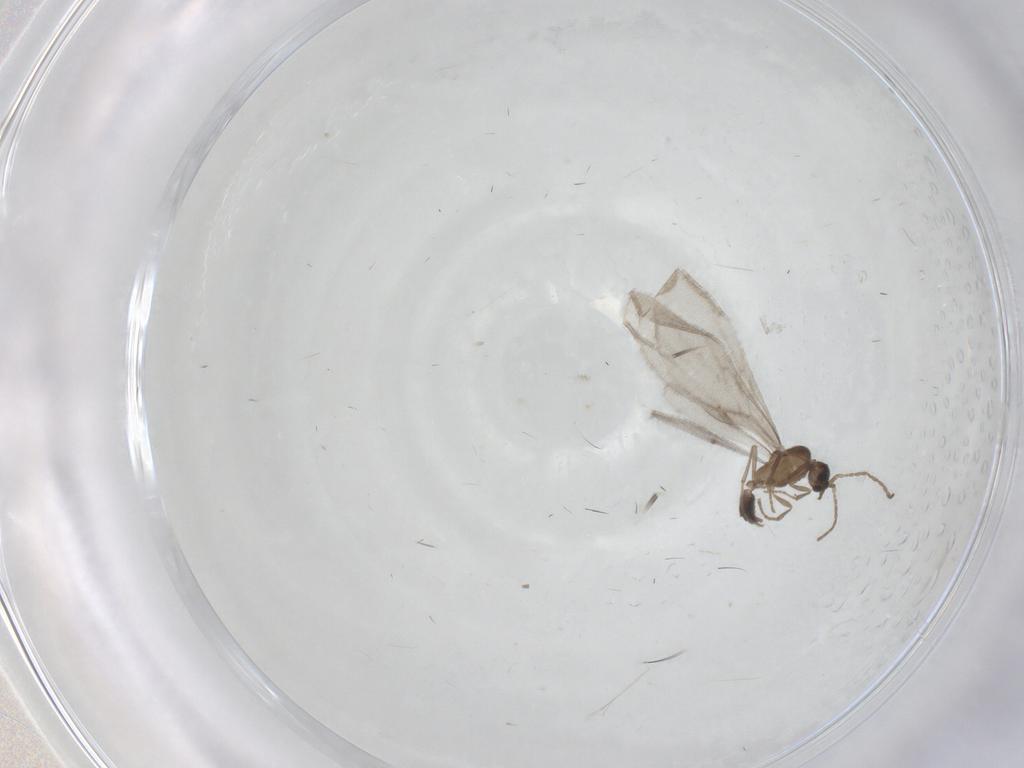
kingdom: Animalia
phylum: Arthropoda
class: Insecta
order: Hymenoptera
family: Formicidae
